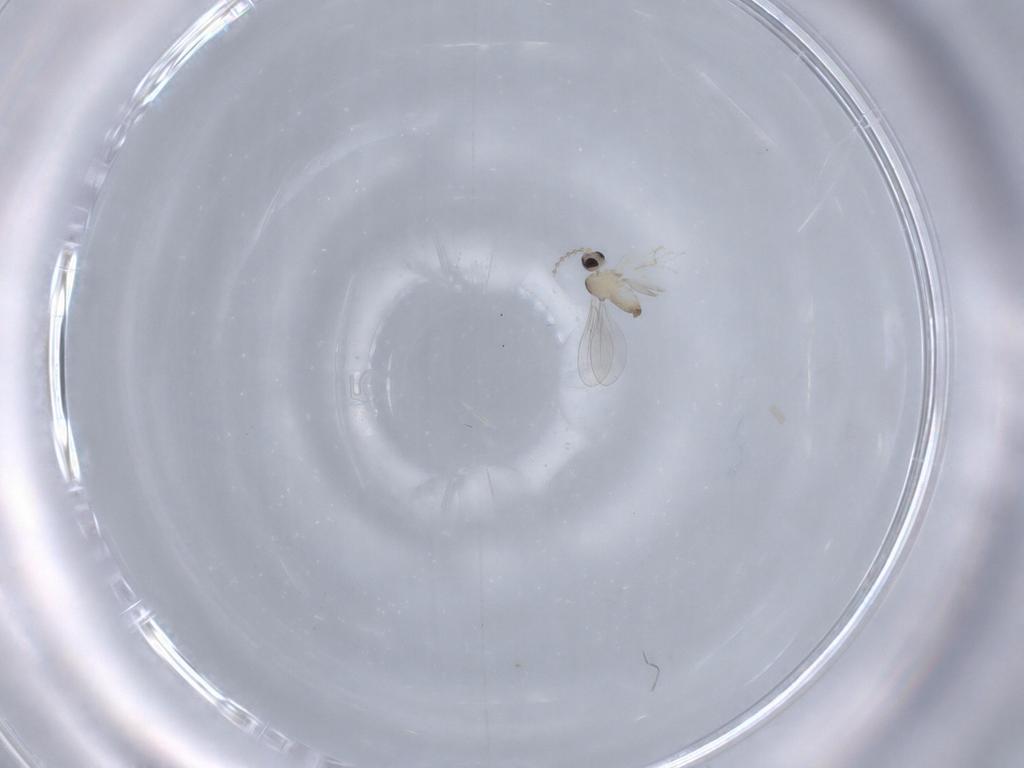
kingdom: Animalia
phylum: Arthropoda
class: Insecta
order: Diptera
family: Cecidomyiidae
